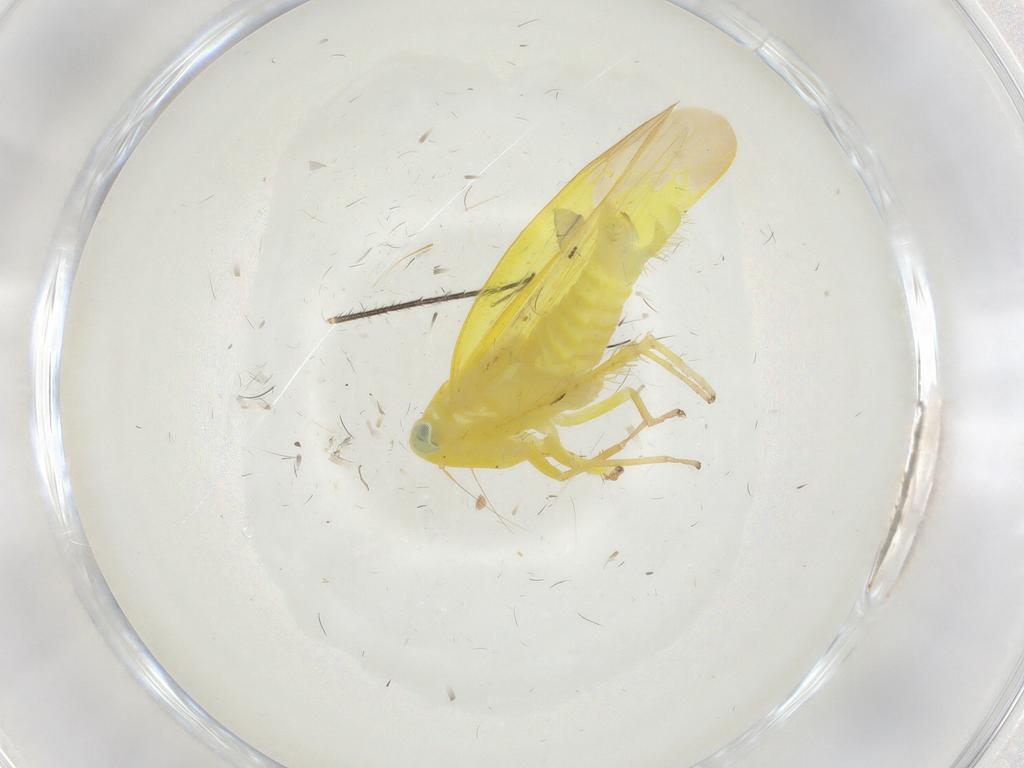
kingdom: Animalia
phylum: Arthropoda
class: Insecta
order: Hemiptera
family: Cicadellidae
